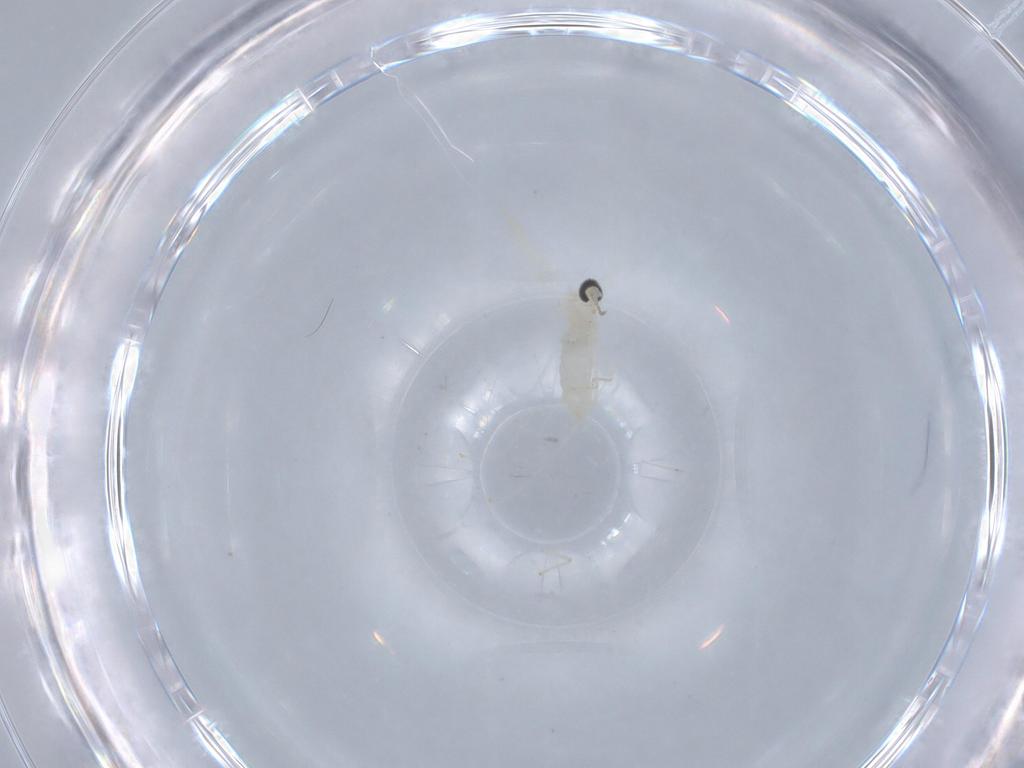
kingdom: Animalia
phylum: Arthropoda
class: Insecta
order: Diptera
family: Cecidomyiidae
